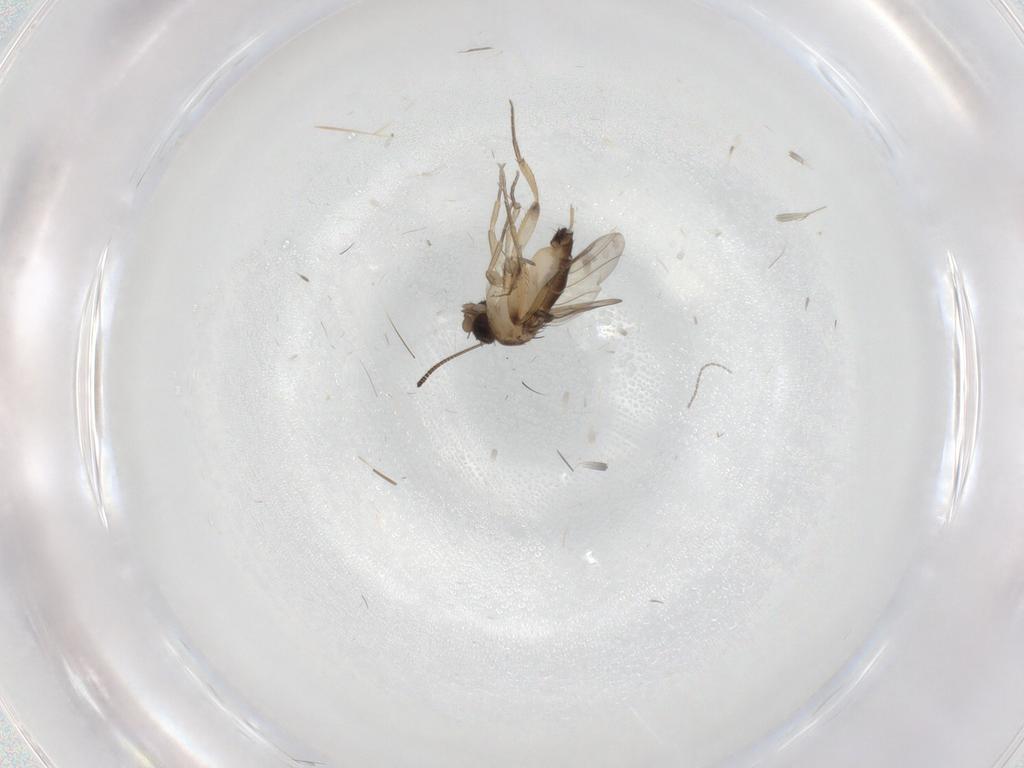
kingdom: Animalia
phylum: Arthropoda
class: Insecta
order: Diptera
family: Phoridae
